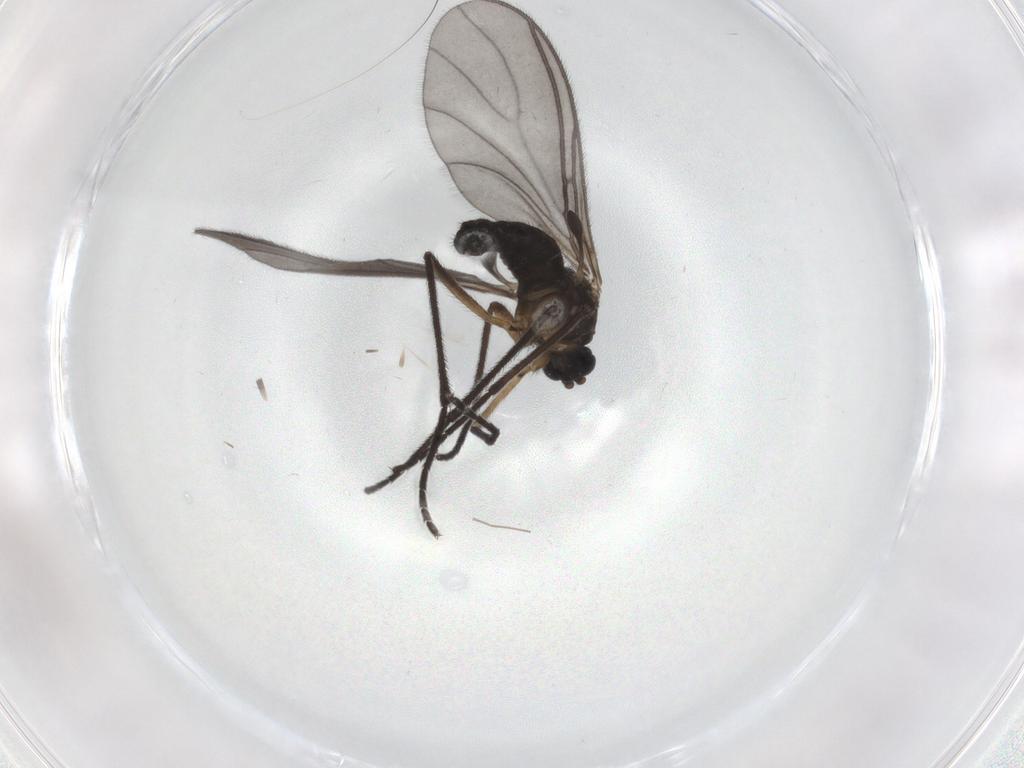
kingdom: Animalia
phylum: Arthropoda
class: Insecta
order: Diptera
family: Sciaridae
